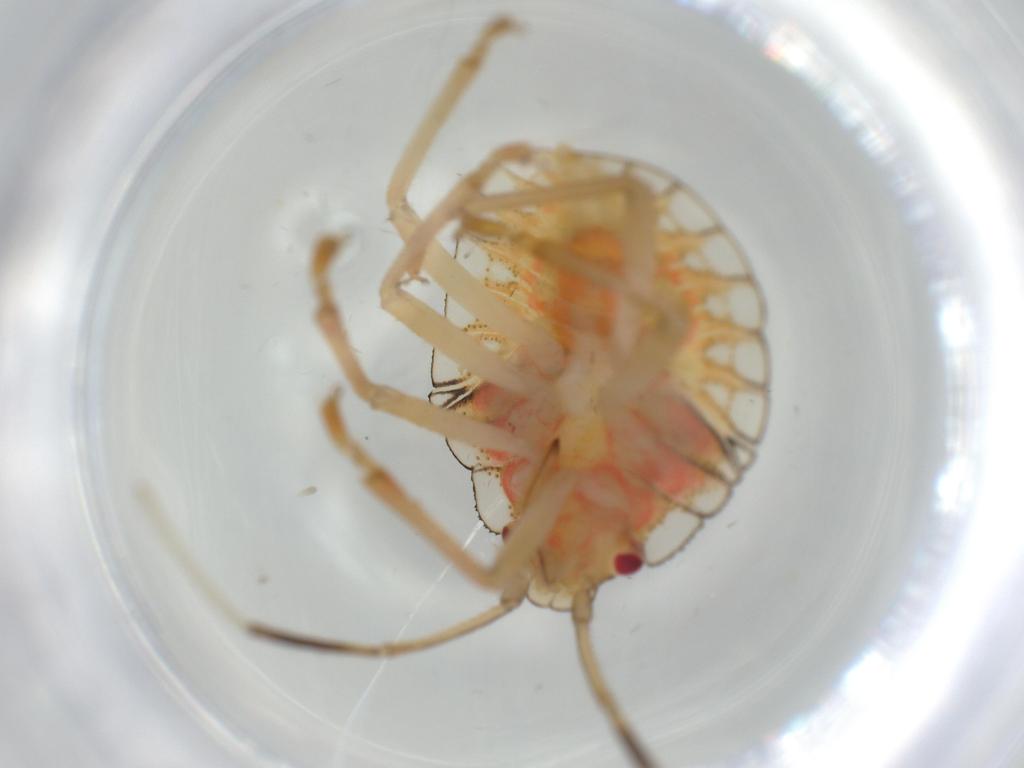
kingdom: Animalia
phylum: Arthropoda
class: Insecta
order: Hemiptera
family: Pentatomidae
